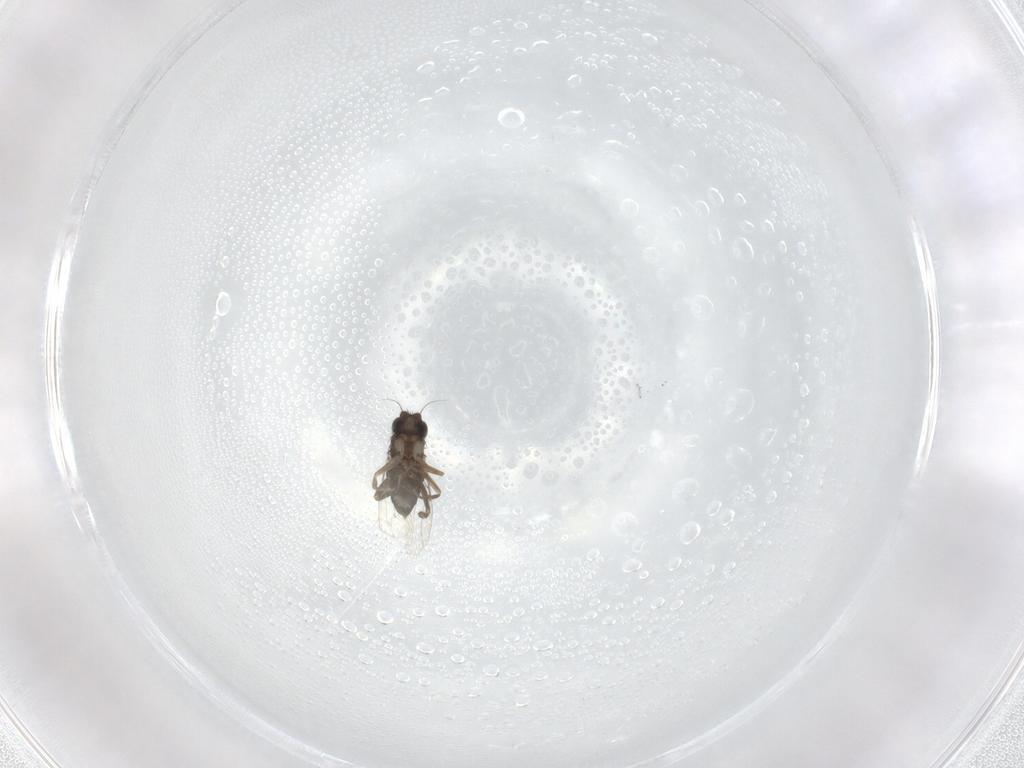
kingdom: Animalia
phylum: Arthropoda
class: Insecta
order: Diptera
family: Phoridae
